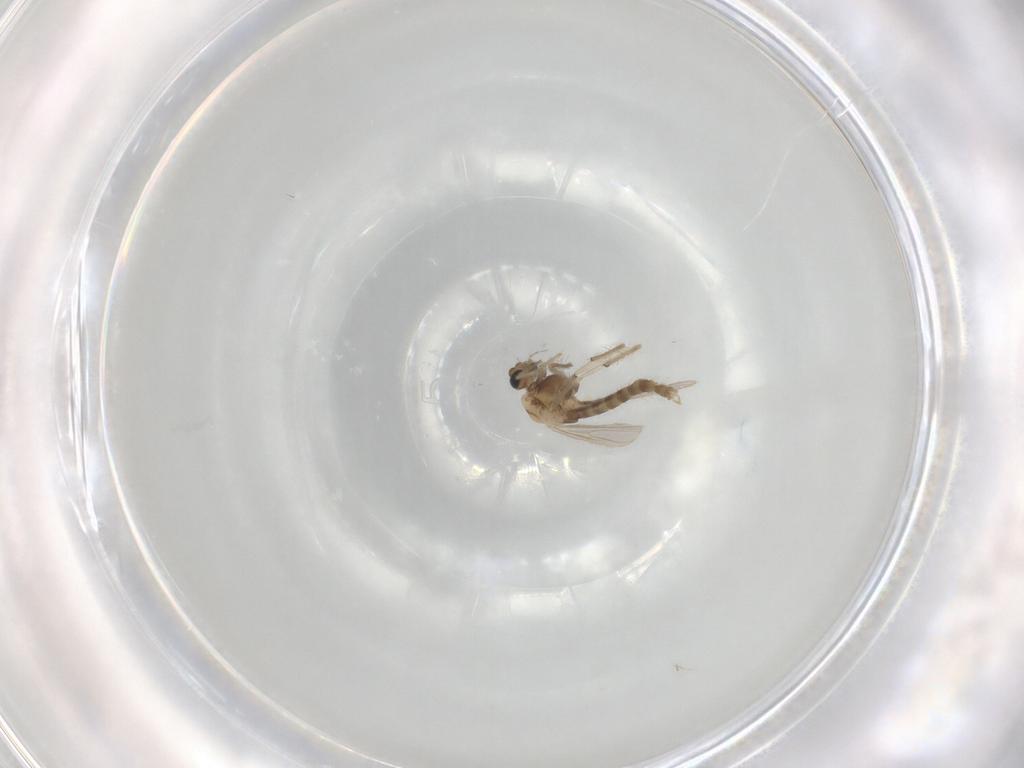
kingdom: Animalia
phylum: Arthropoda
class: Insecta
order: Diptera
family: Chironomidae
